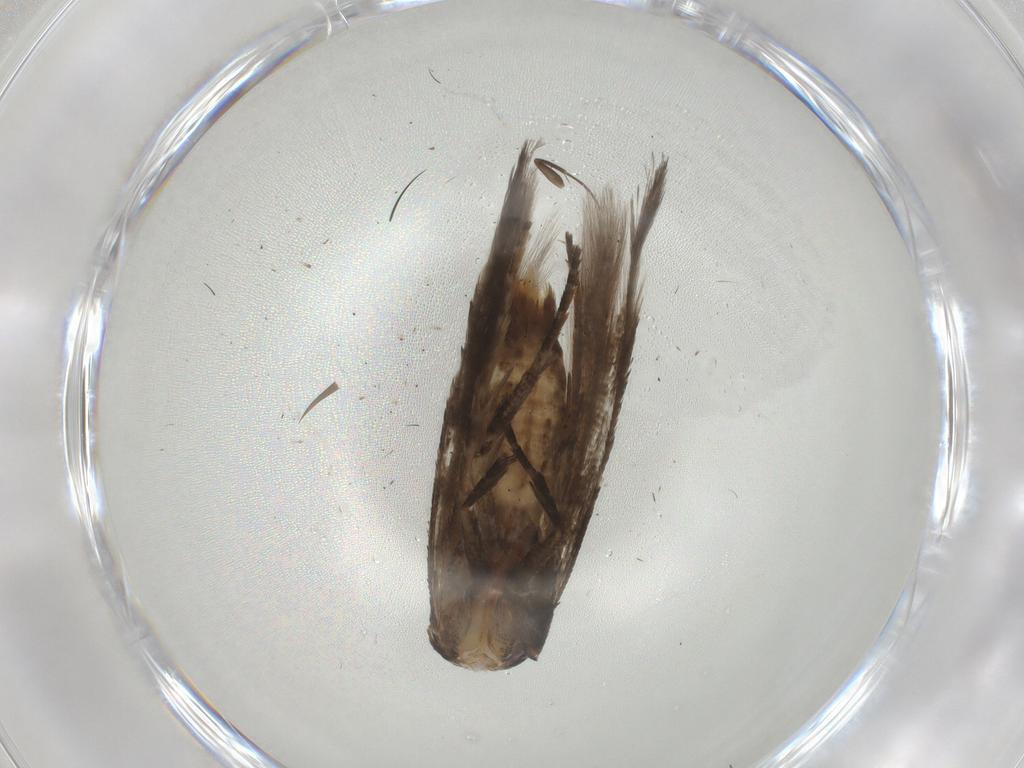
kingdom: Animalia
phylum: Arthropoda
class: Insecta
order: Lepidoptera
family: Gelechiidae
